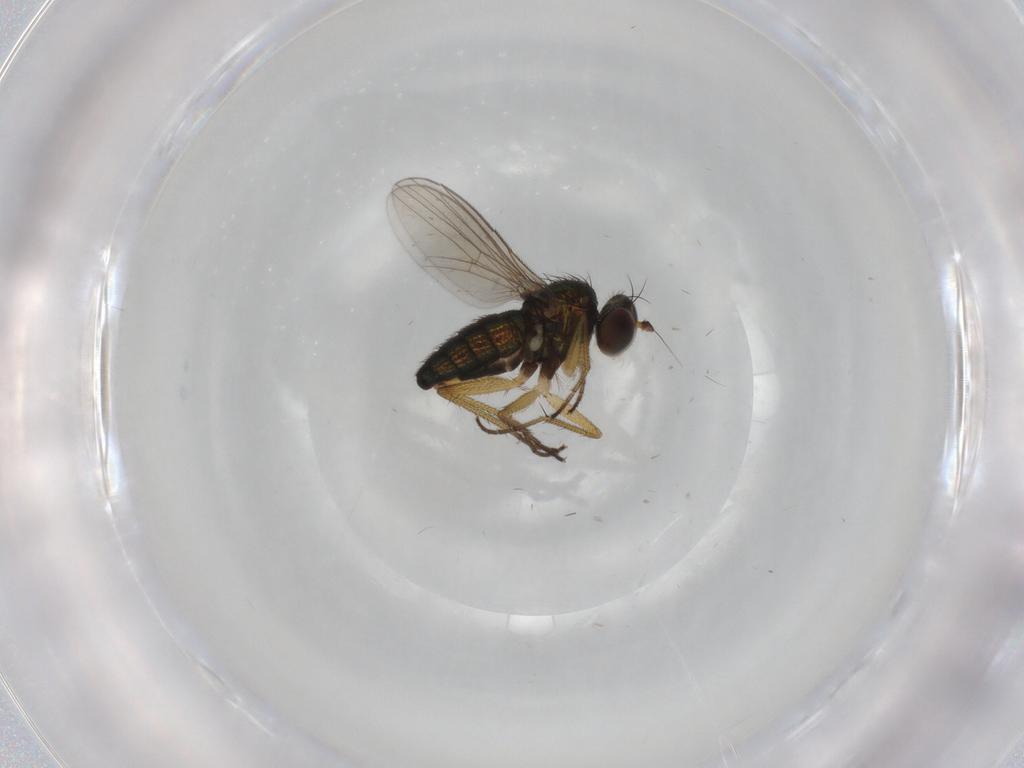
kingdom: Animalia
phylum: Arthropoda
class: Insecta
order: Diptera
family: Dolichopodidae
